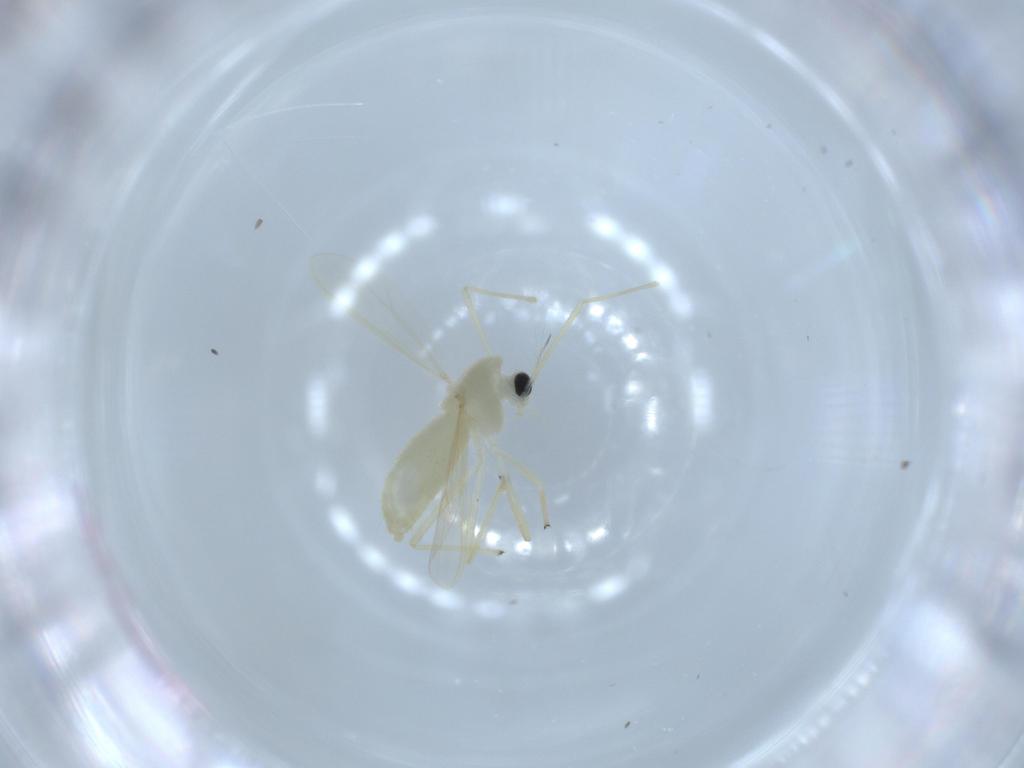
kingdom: Animalia
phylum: Arthropoda
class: Insecta
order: Diptera
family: Chironomidae
